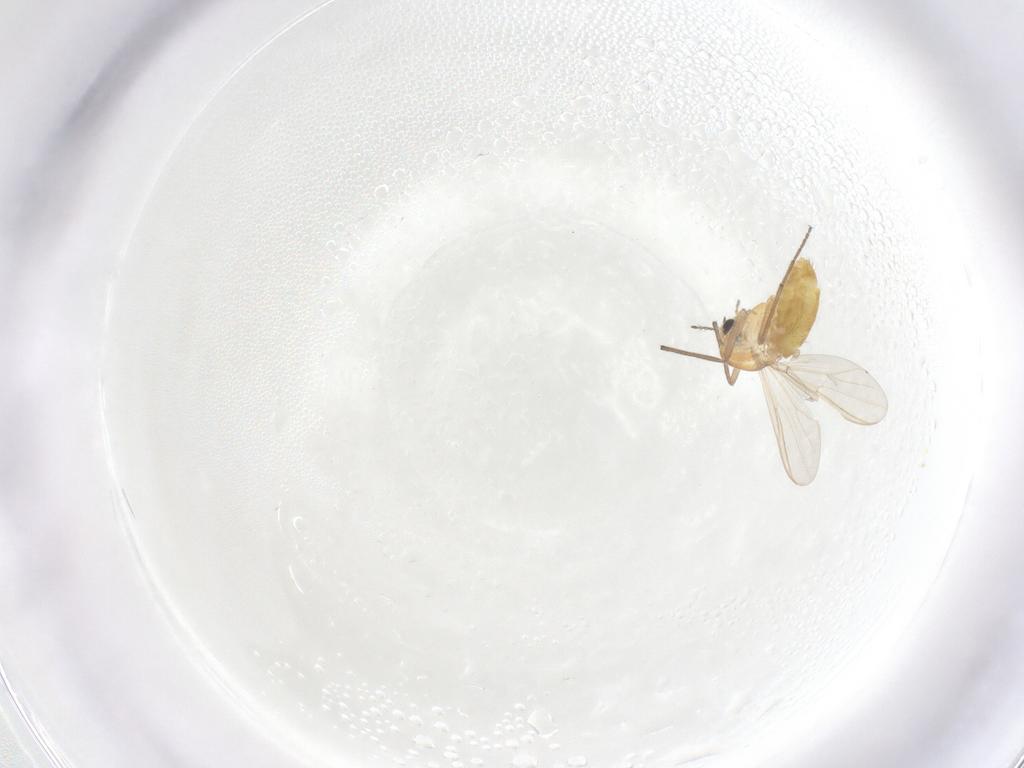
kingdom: Animalia
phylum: Arthropoda
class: Insecta
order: Diptera
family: Chironomidae
